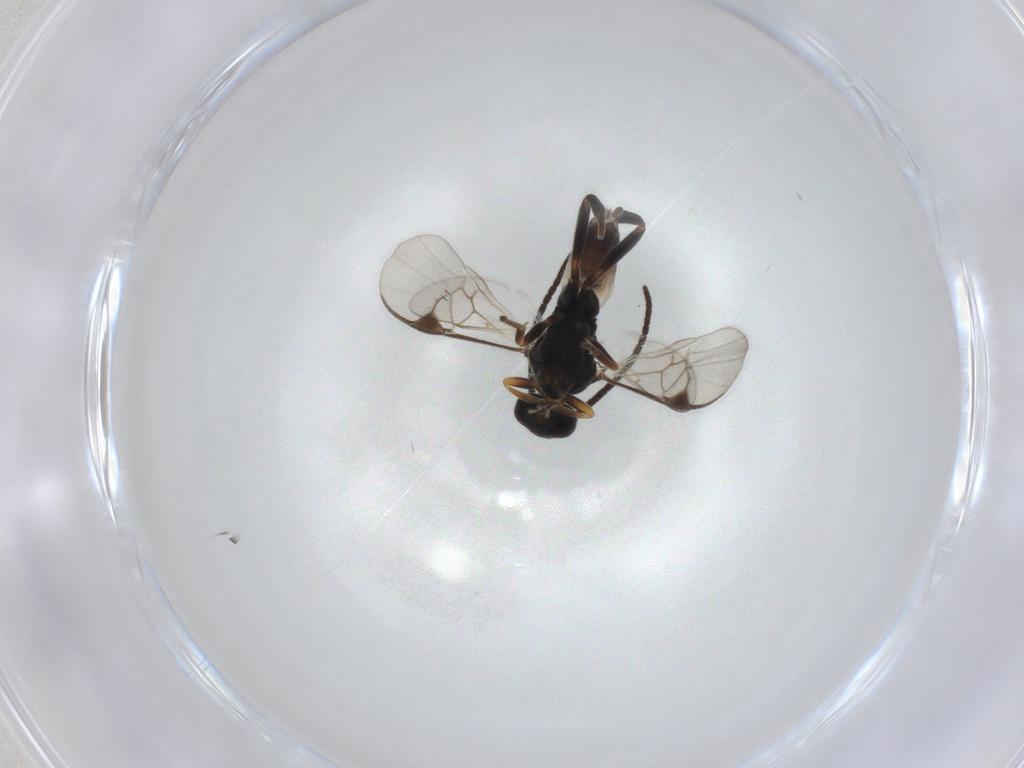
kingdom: Animalia
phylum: Arthropoda
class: Insecta
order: Hymenoptera
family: Braconidae
